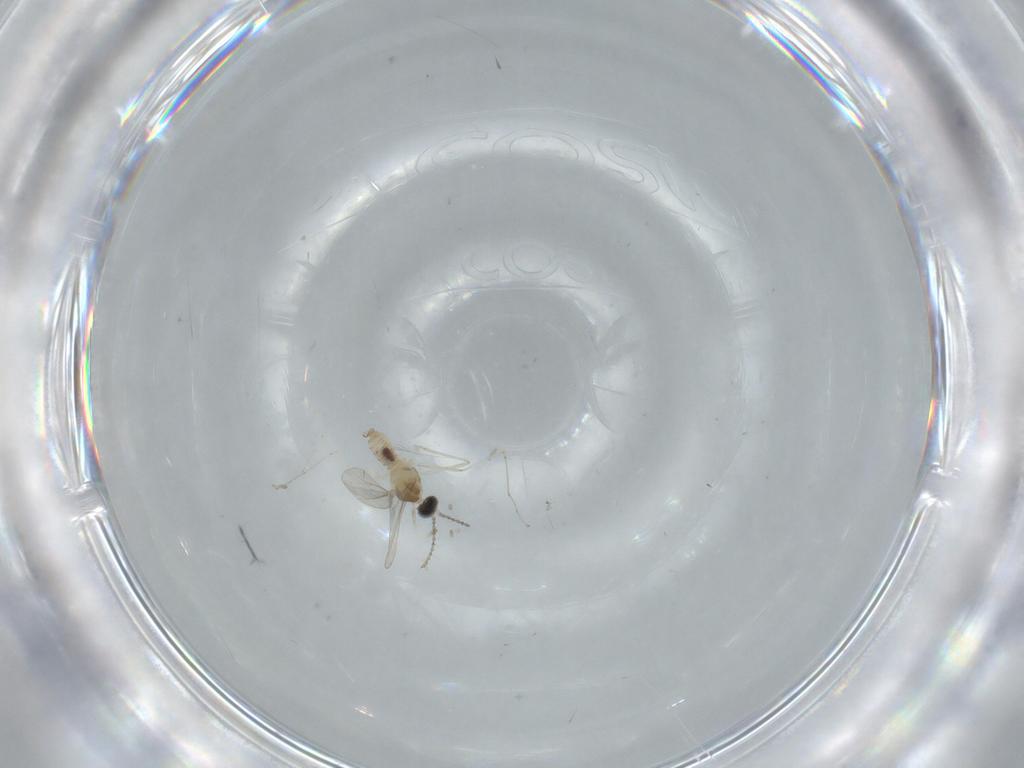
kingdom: Animalia
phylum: Arthropoda
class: Insecta
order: Diptera
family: Cecidomyiidae
